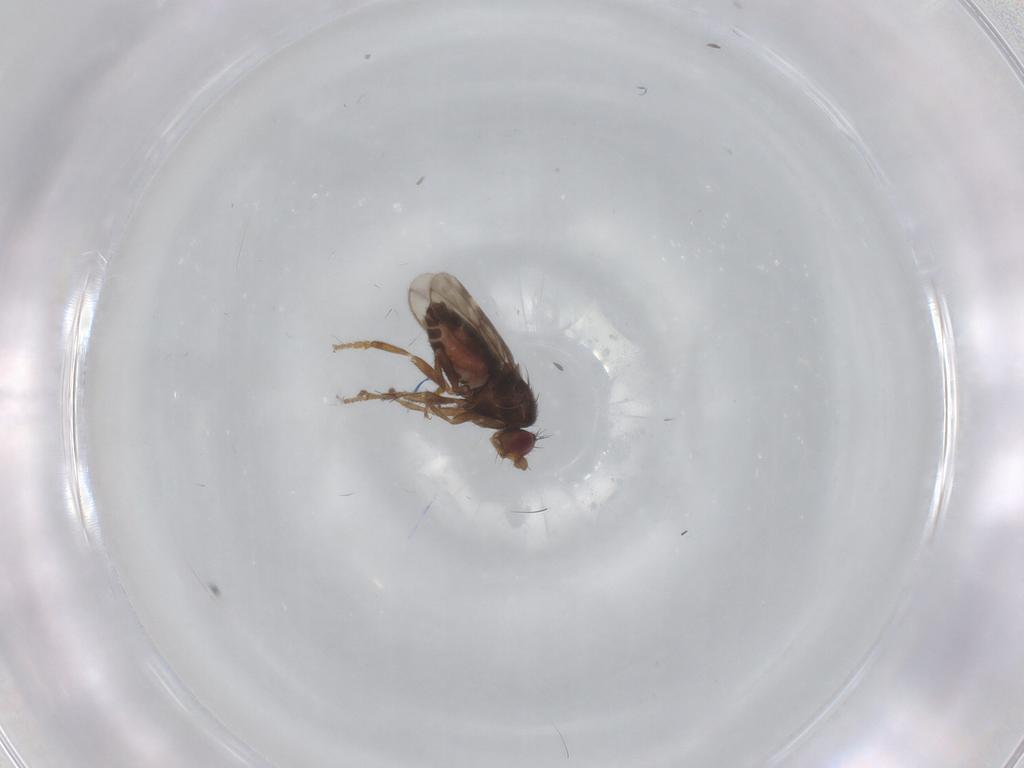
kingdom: Animalia
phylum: Arthropoda
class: Insecta
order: Diptera
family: Sphaeroceridae
